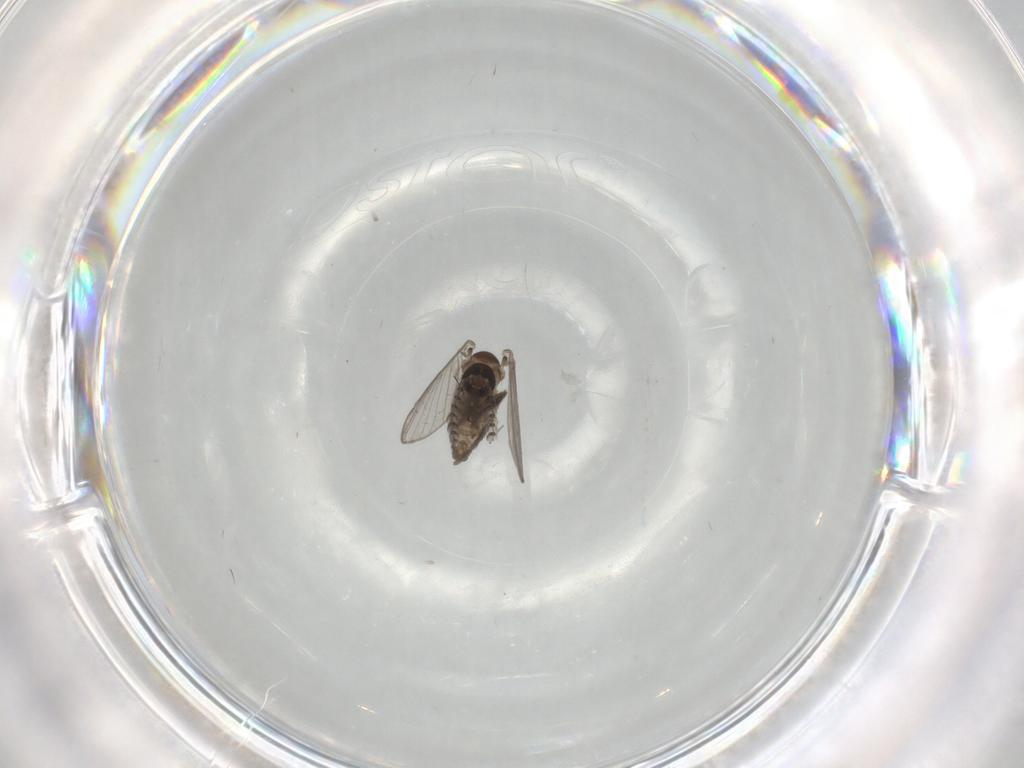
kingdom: Animalia
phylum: Arthropoda
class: Insecta
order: Diptera
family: Psychodidae
